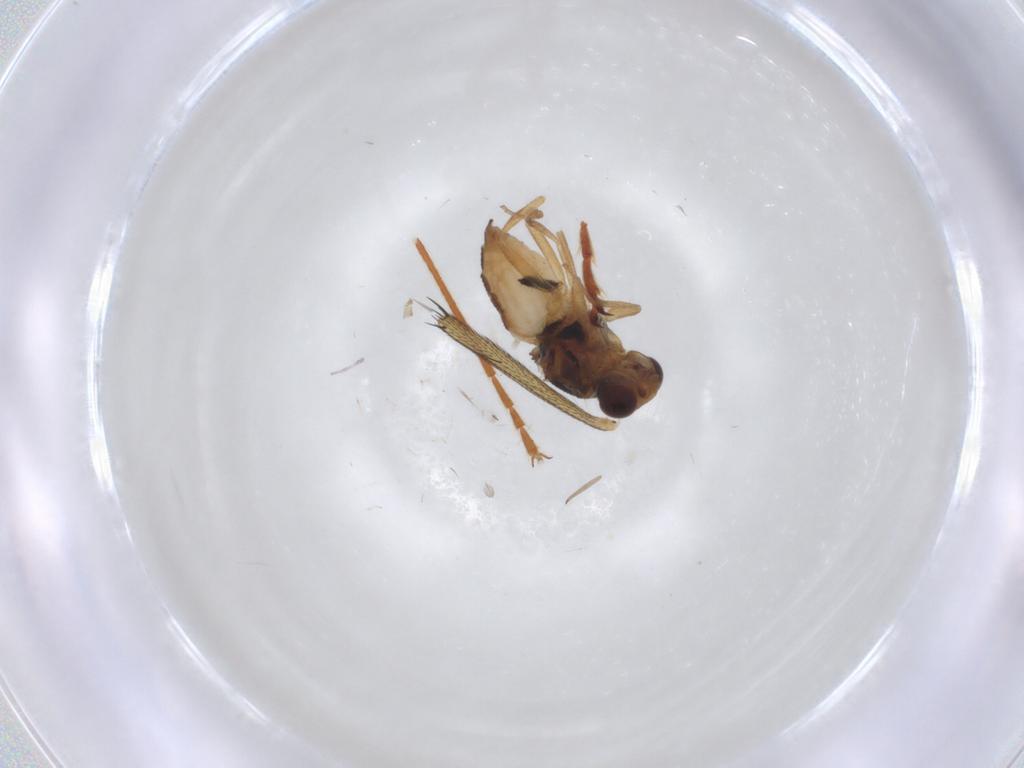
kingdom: Animalia
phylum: Arthropoda
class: Insecta
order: Diptera
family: Chloropidae
